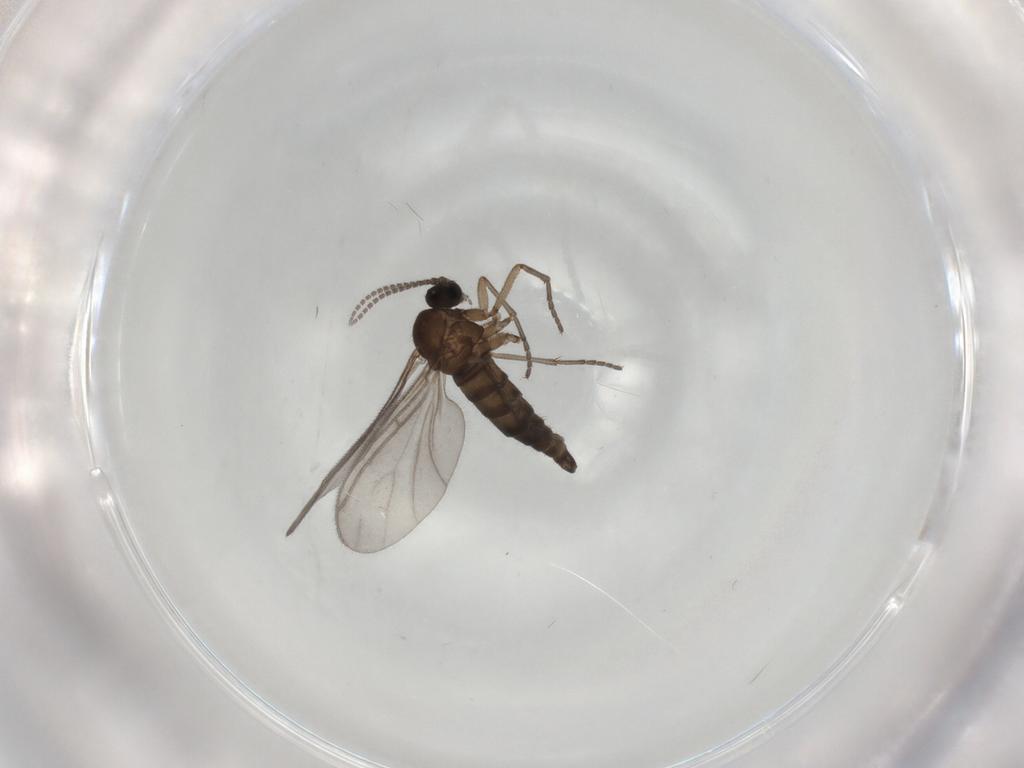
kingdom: Animalia
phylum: Arthropoda
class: Insecta
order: Diptera
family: Sciaridae
